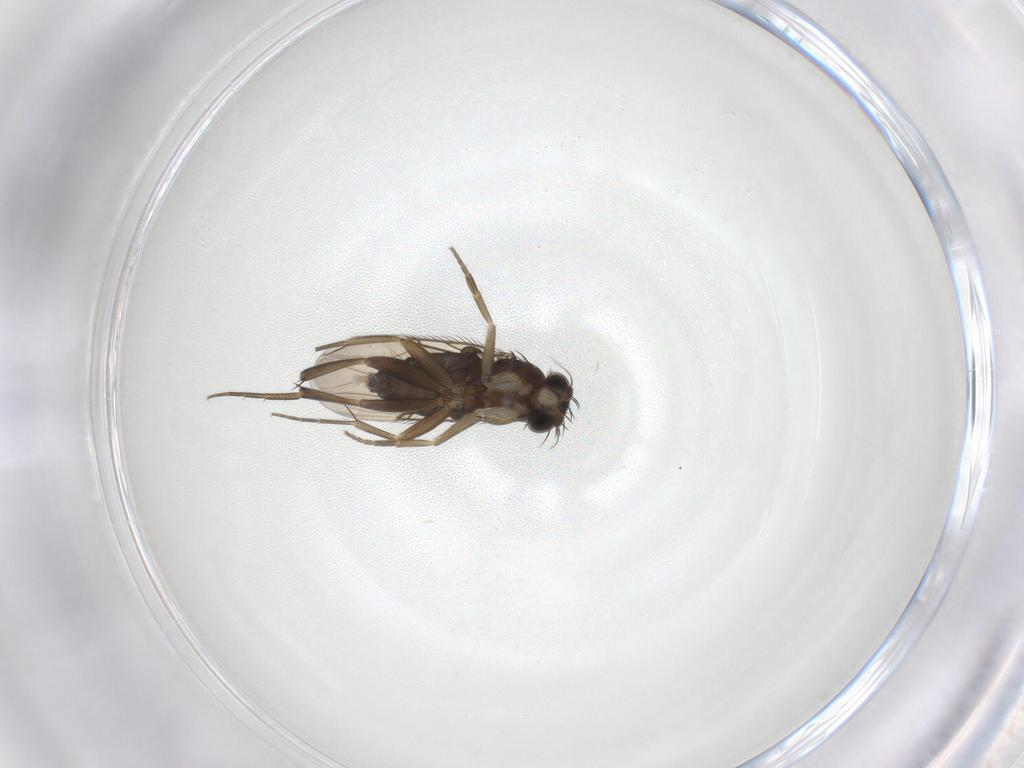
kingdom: Animalia
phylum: Arthropoda
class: Insecta
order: Diptera
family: Phoridae
